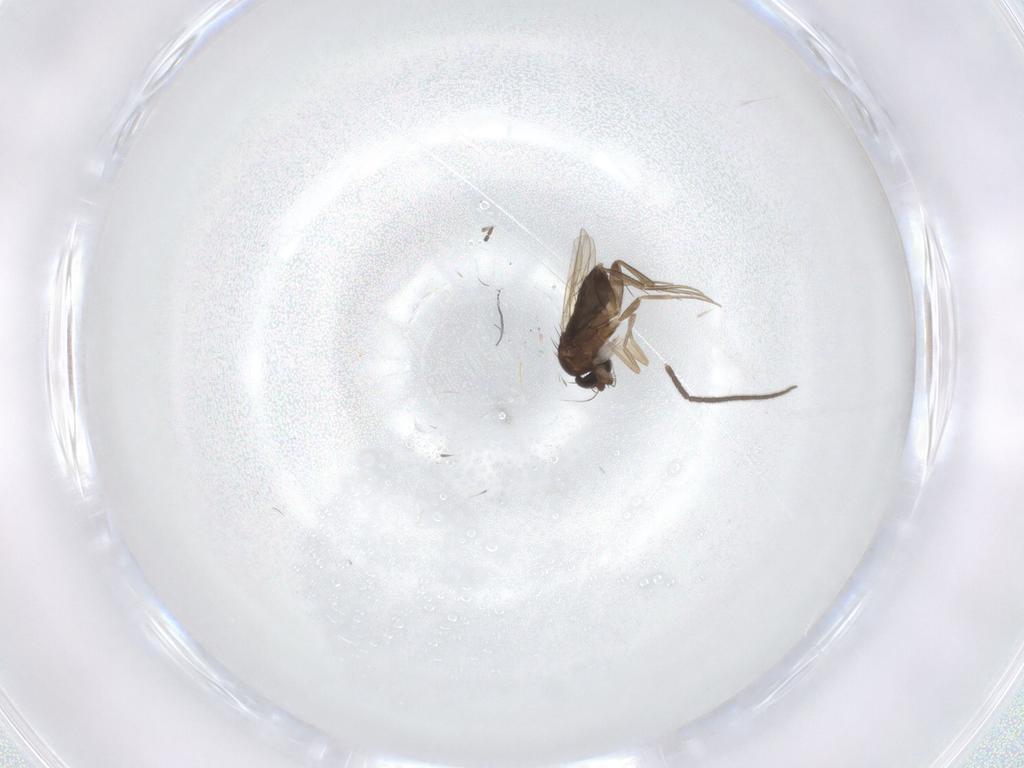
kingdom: Animalia
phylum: Arthropoda
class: Insecta
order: Diptera
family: Phoridae
